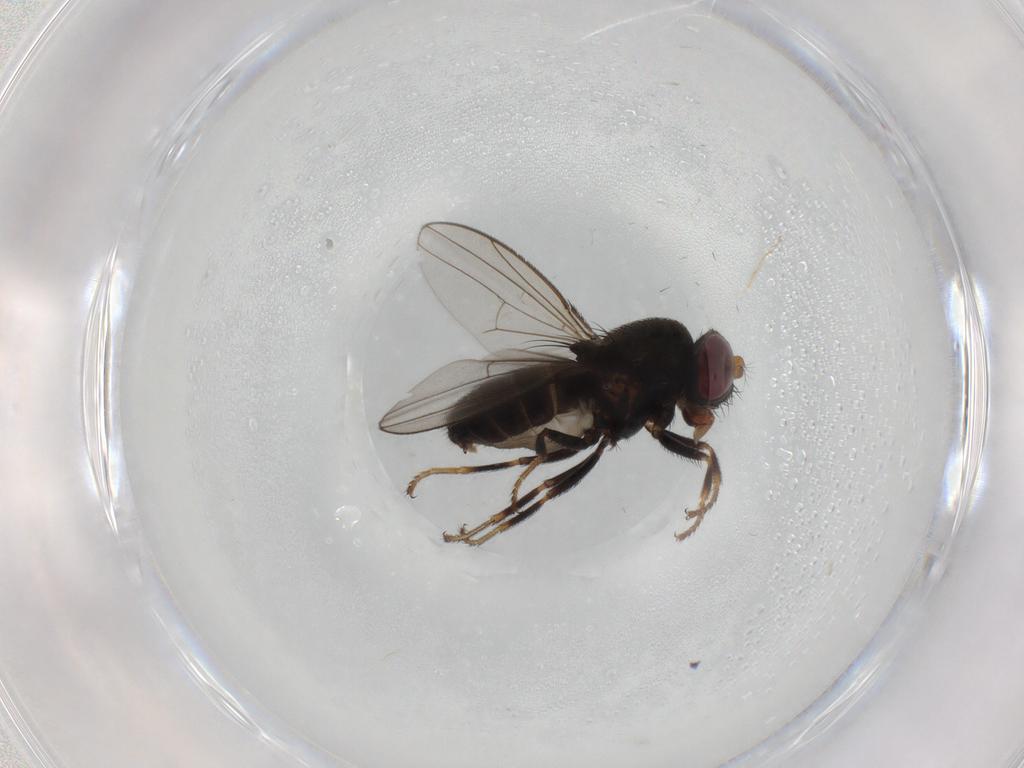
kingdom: Animalia
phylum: Arthropoda
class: Insecta
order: Diptera
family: Ephydridae
